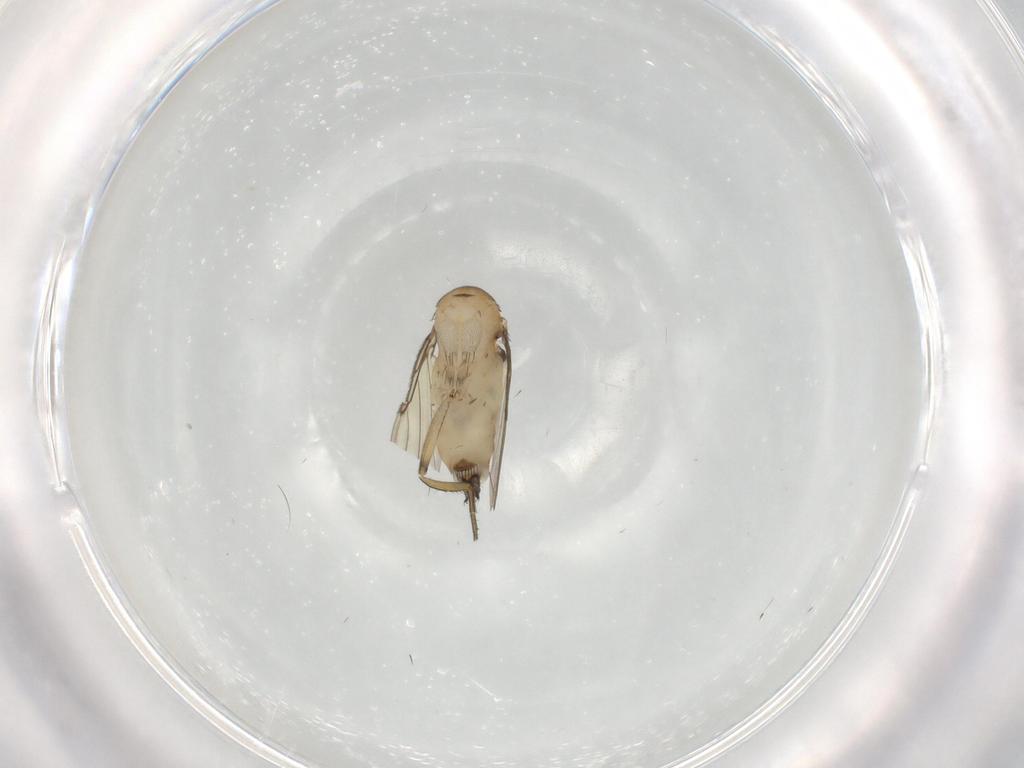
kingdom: Animalia
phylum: Arthropoda
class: Insecta
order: Diptera
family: Phoridae
